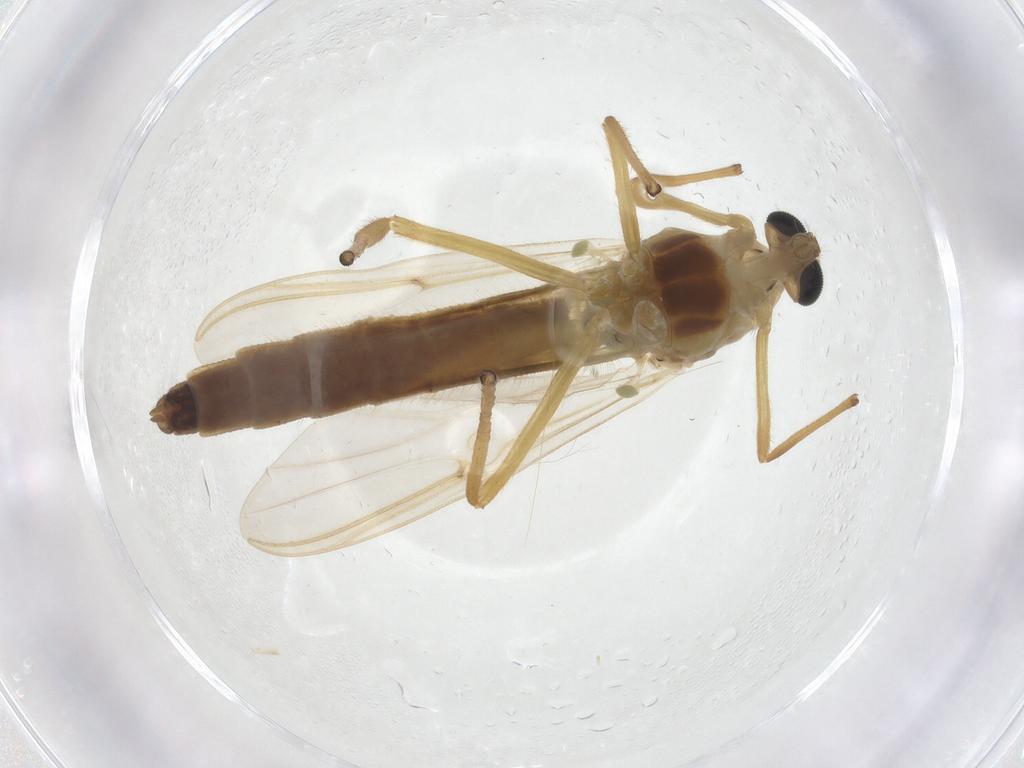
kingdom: Animalia
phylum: Arthropoda
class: Insecta
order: Diptera
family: Chironomidae
